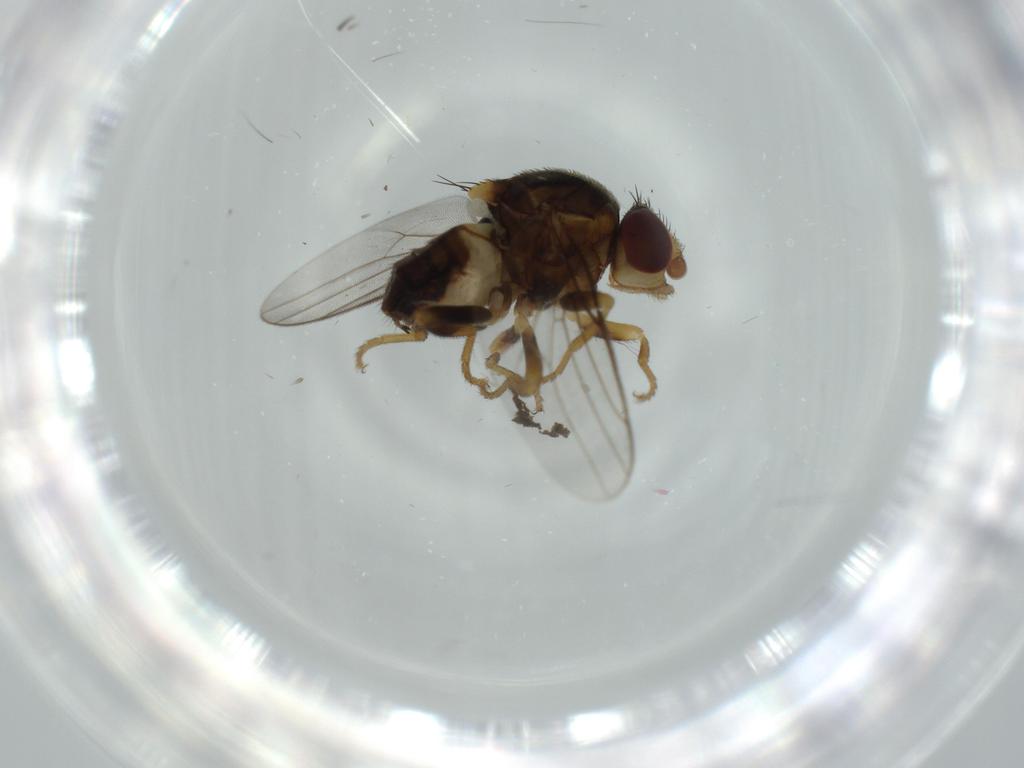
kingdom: Animalia
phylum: Arthropoda
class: Insecta
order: Diptera
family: Chloropidae
